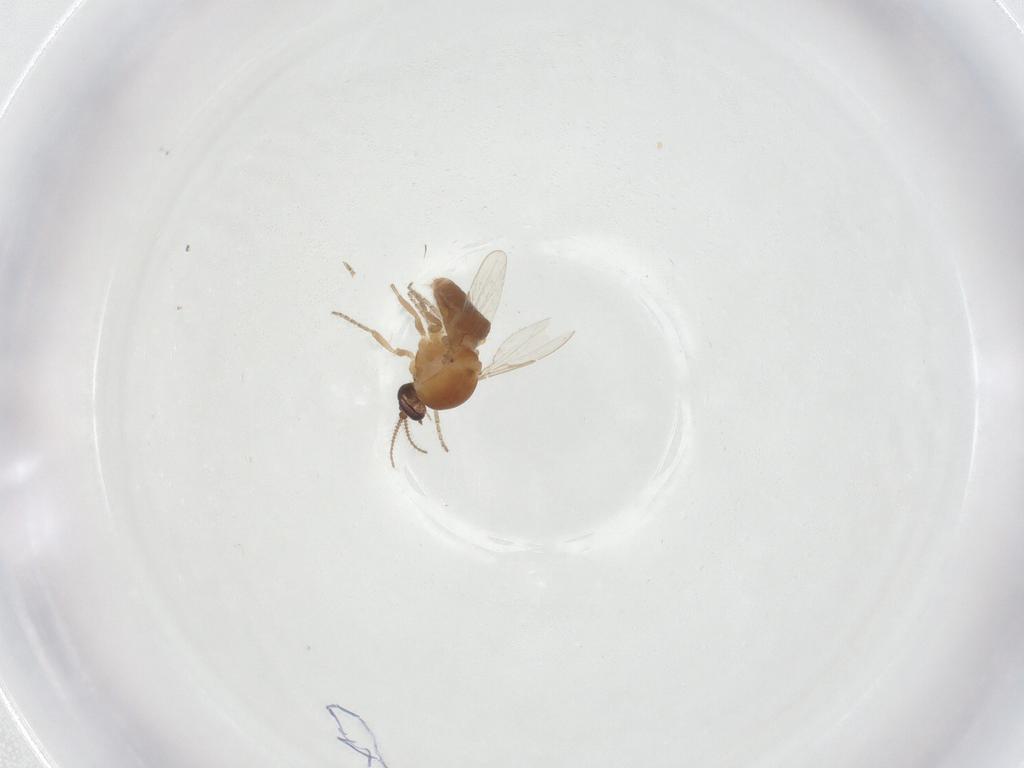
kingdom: Animalia
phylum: Arthropoda
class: Insecta
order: Diptera
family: Ceratopogonidae
